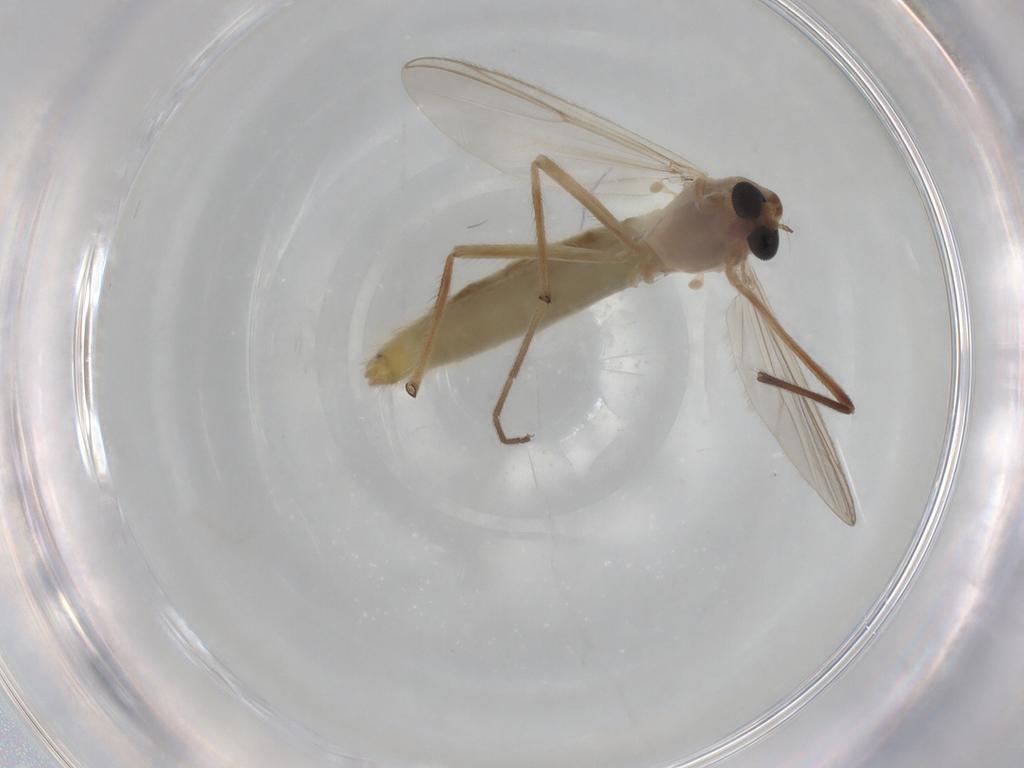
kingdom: Animalia
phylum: Arthropoda
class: Insecta
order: Diptera
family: Chironomidae
